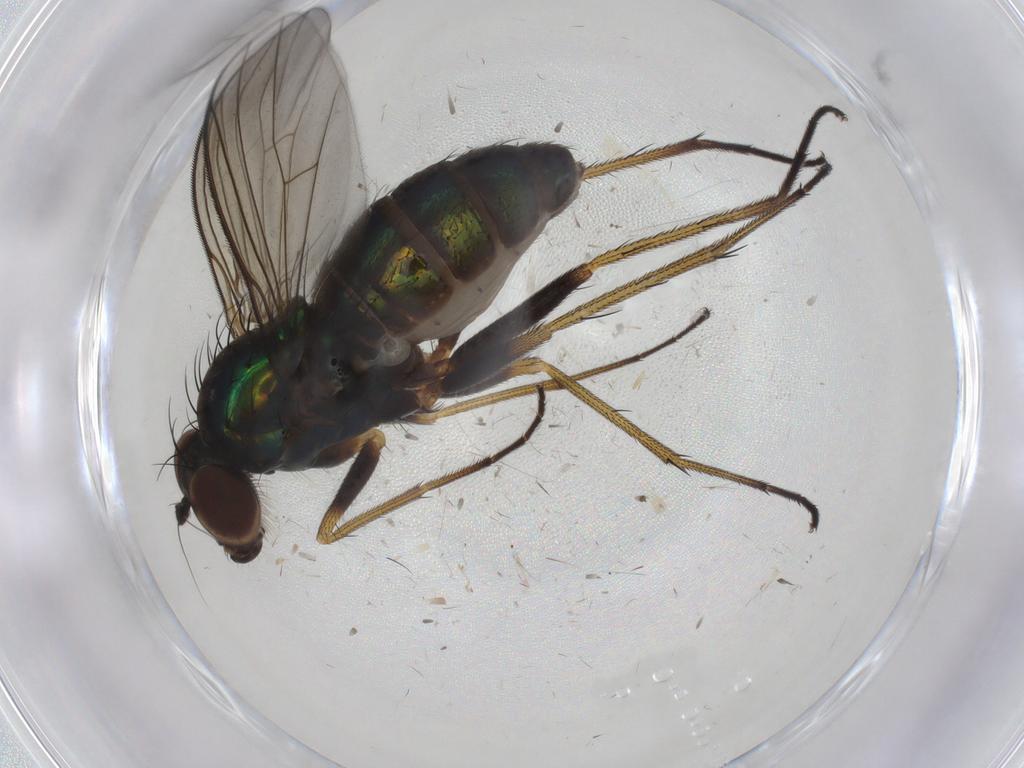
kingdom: Animalia
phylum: Arthropoda
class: Insecta
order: Diptera
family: Dolichopodidae
